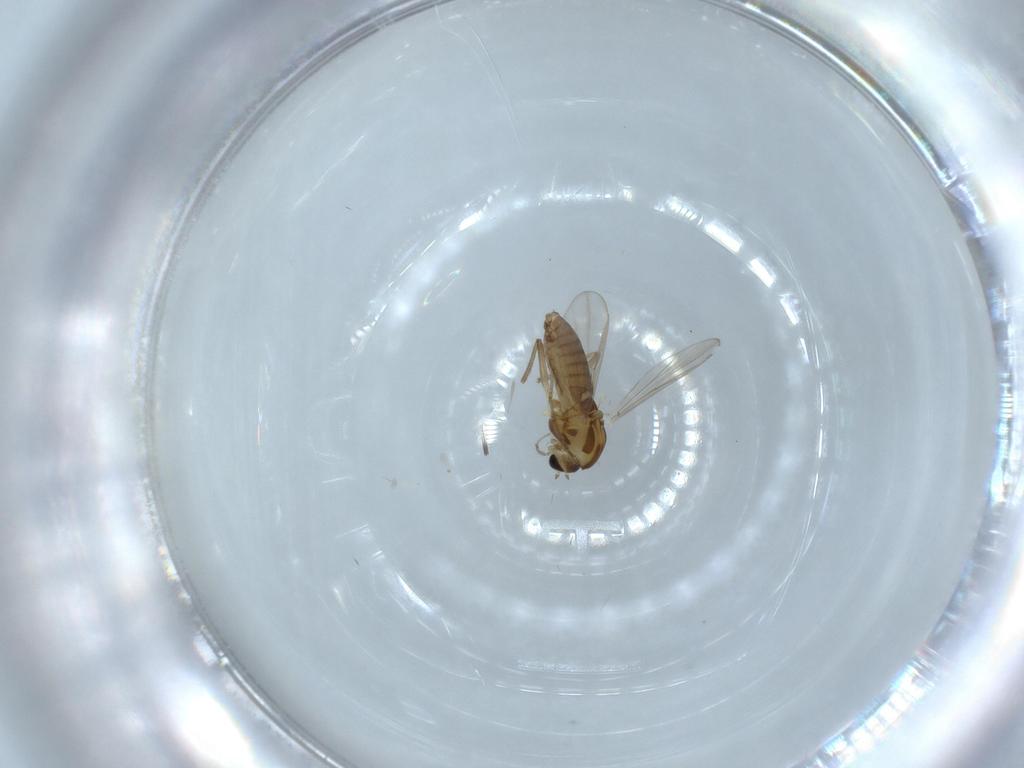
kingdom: Animalia
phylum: Arthropoda
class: Insecta
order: Diptera
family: Chironomidae
